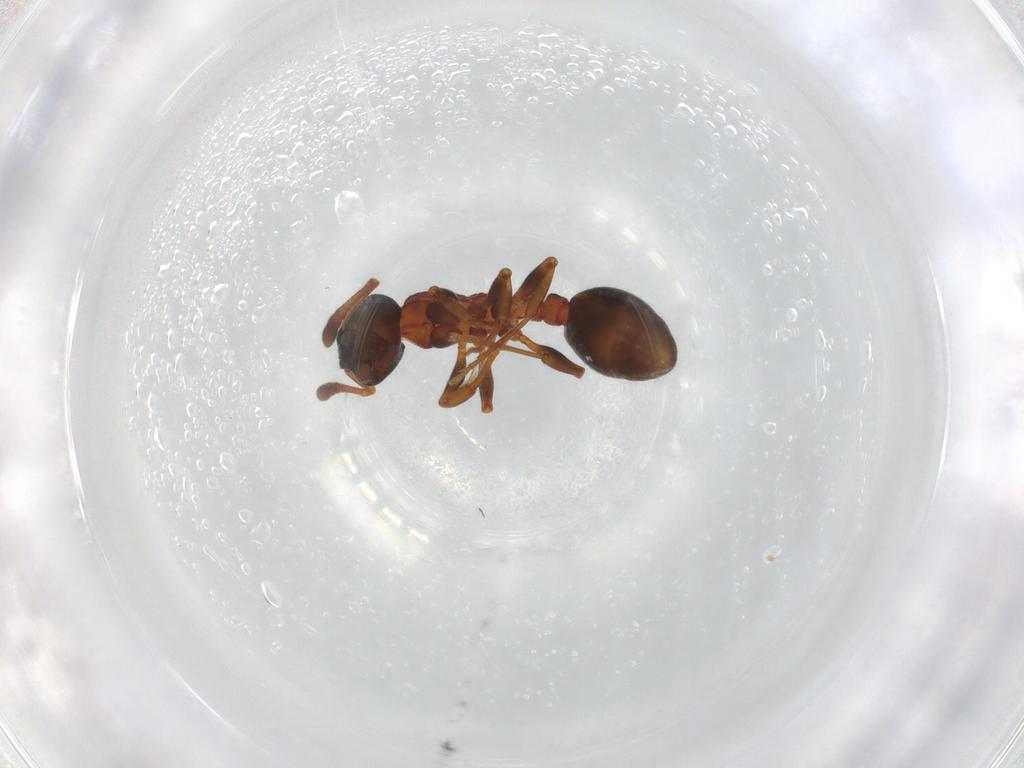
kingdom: Animalia
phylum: Arthropoda
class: Insecta
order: Hymenoptera
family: Formicidae
